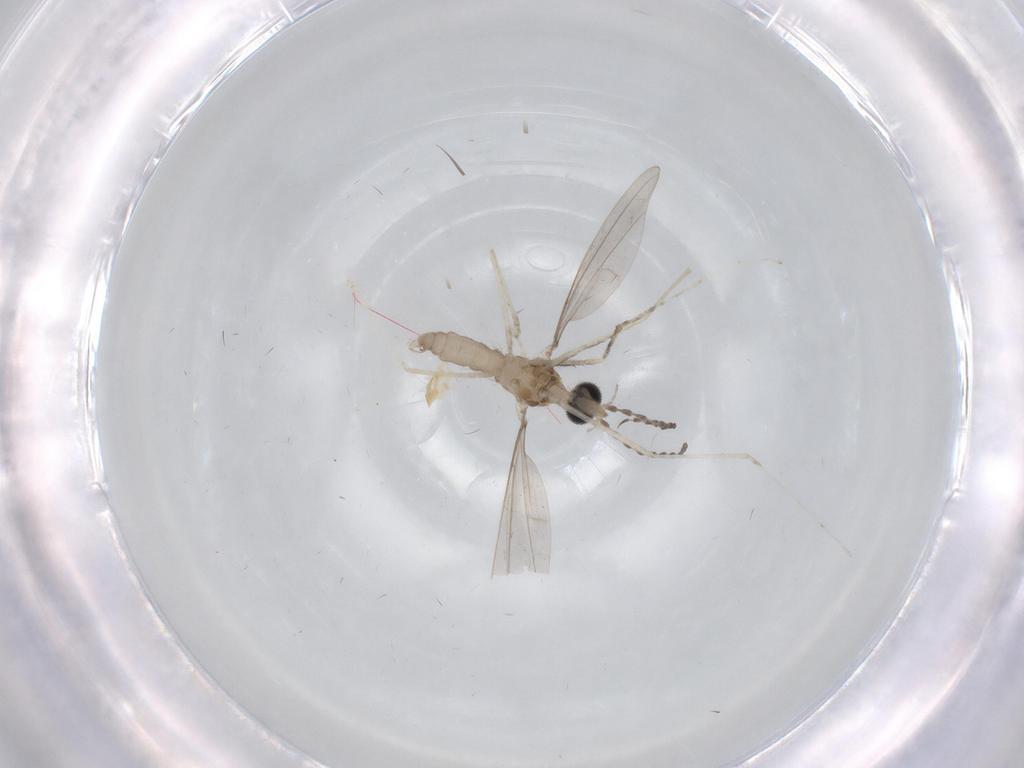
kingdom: Animalia
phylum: Arthropoda
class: Insecta
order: Diptera
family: Cecidomyiidae
